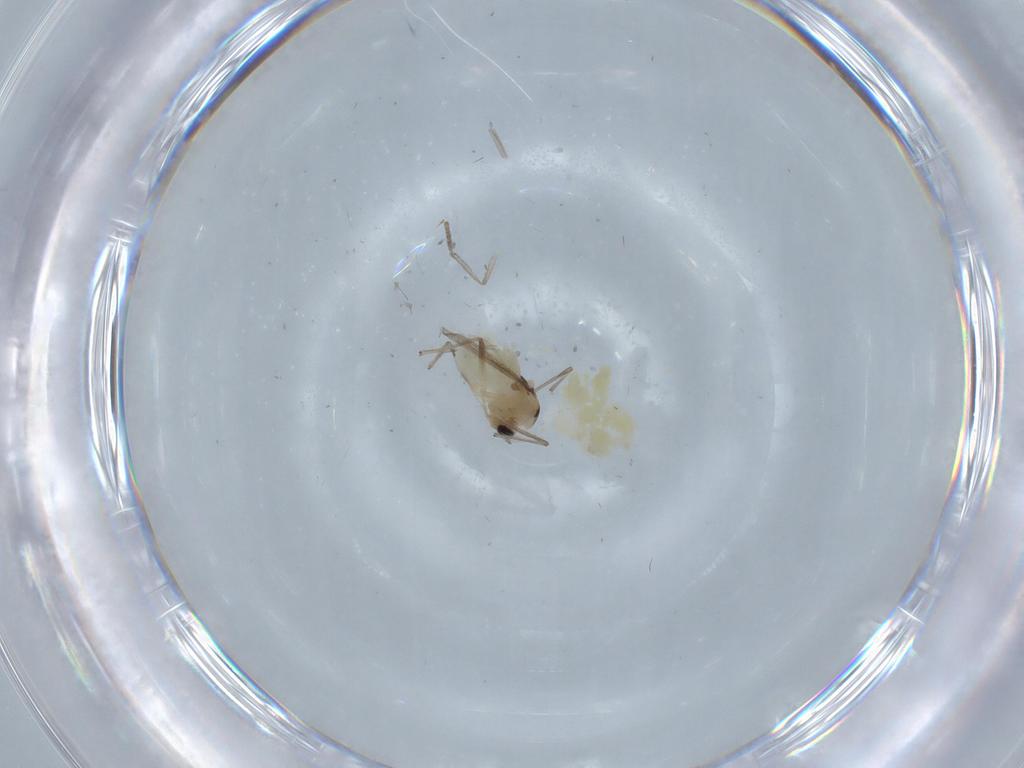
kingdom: Animalia
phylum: Arthropoda
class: Insecta
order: Diptera
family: Chironomidae
